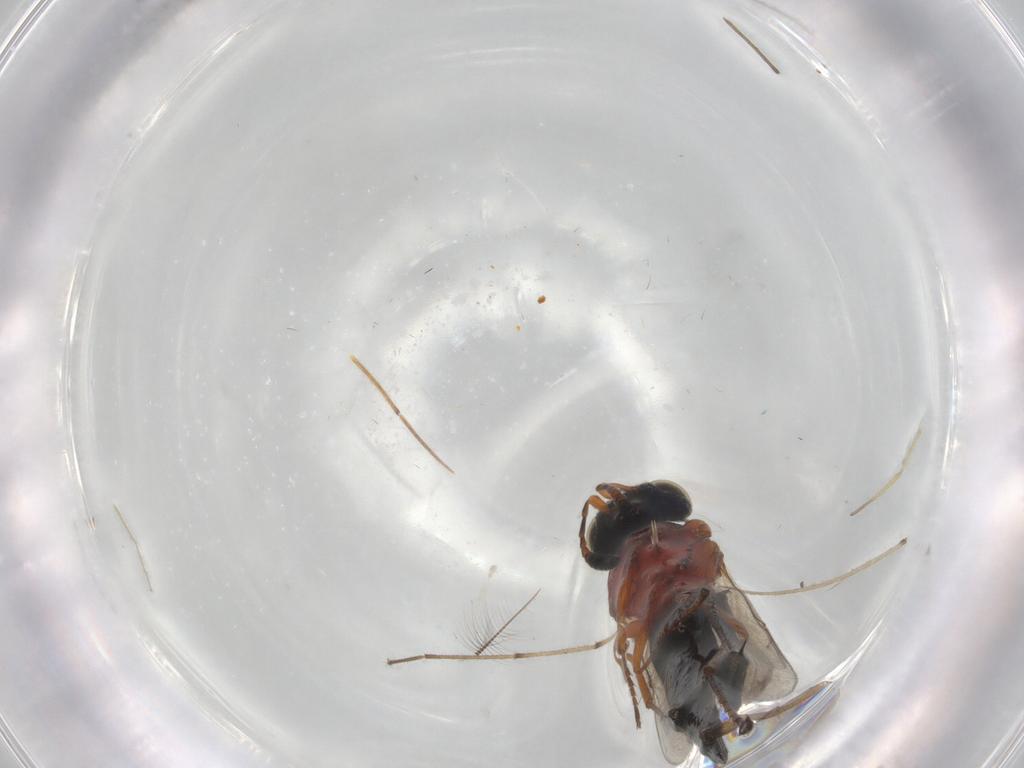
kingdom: Animalia
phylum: Arthropoda
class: Insecta
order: Hymenoptera
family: Scelionidae
